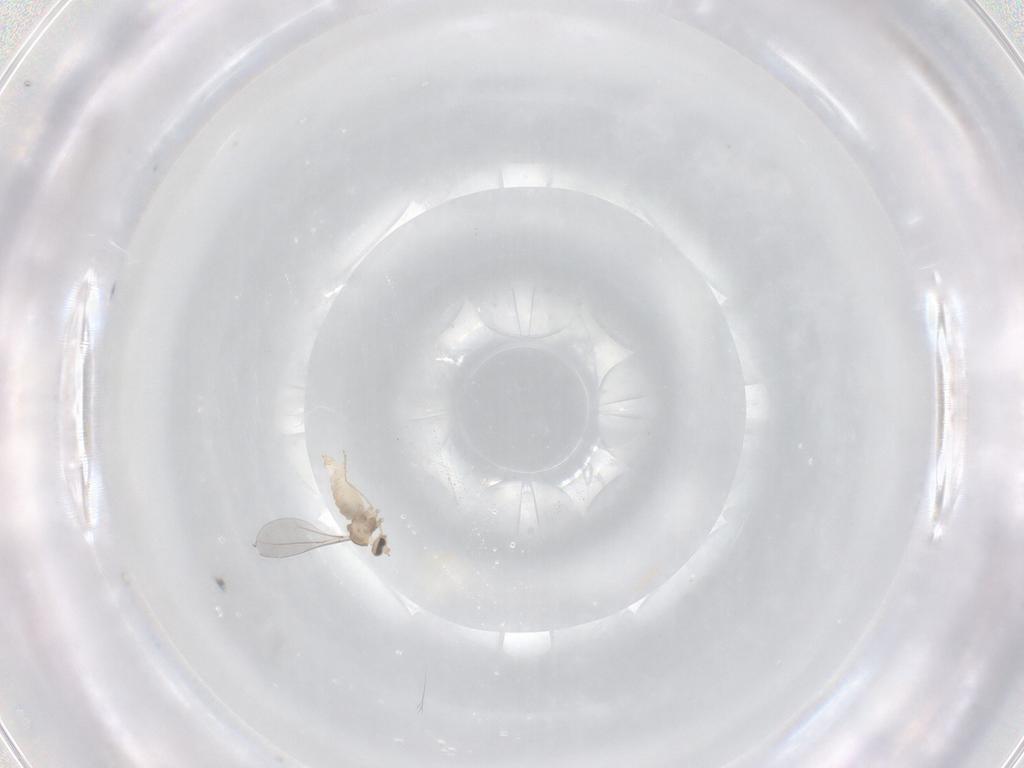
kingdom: Animalia
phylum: Arthropoda
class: Insecta
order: Diptera
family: Cecidomyiidae
